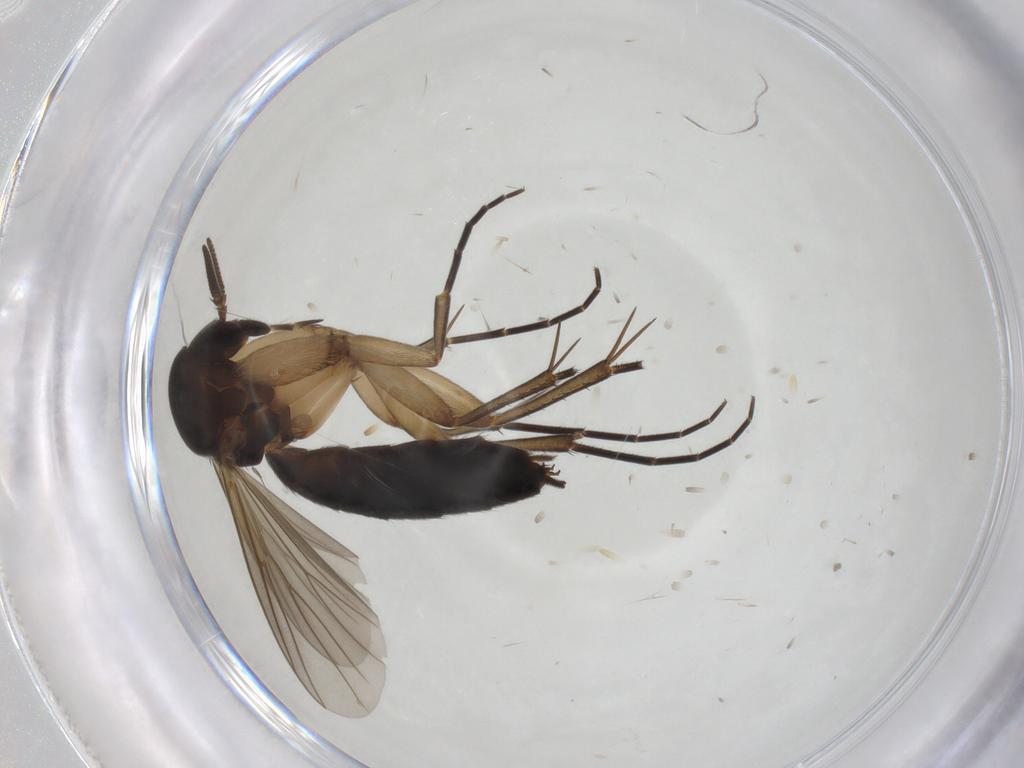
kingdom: Animalia
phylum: Arthropoda
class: Insecta
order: Diptera
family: Mycetophilidae
